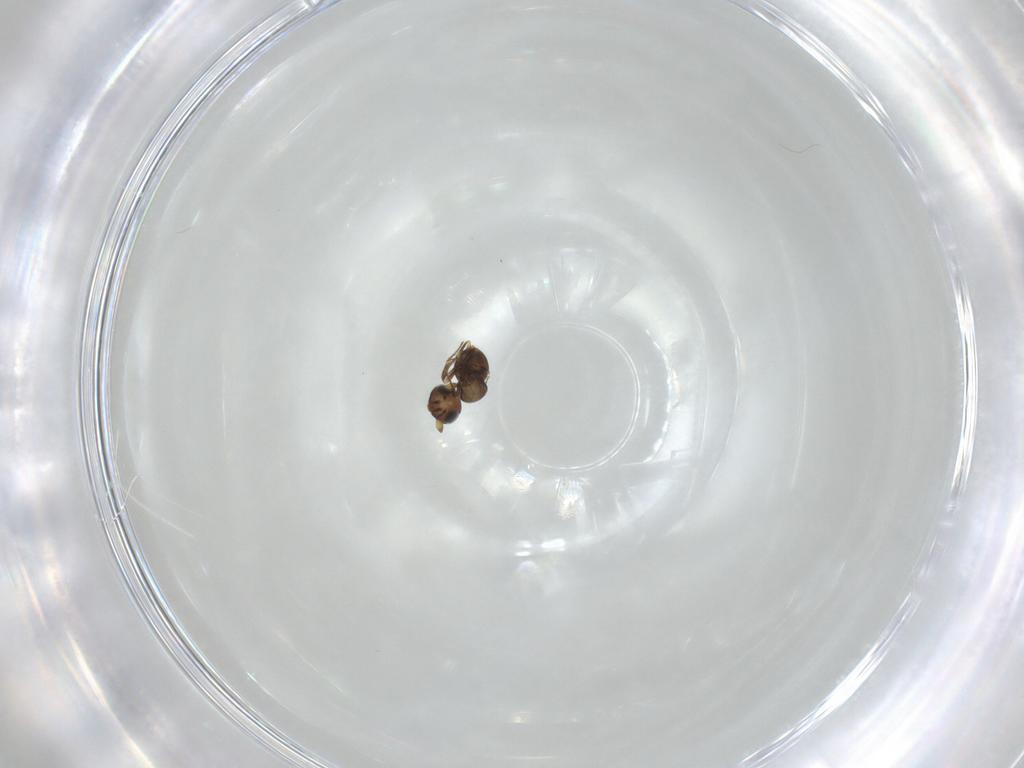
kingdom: Animalia
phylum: Arthropoda
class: Insecta
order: Hymenoptera
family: Scelionidae
